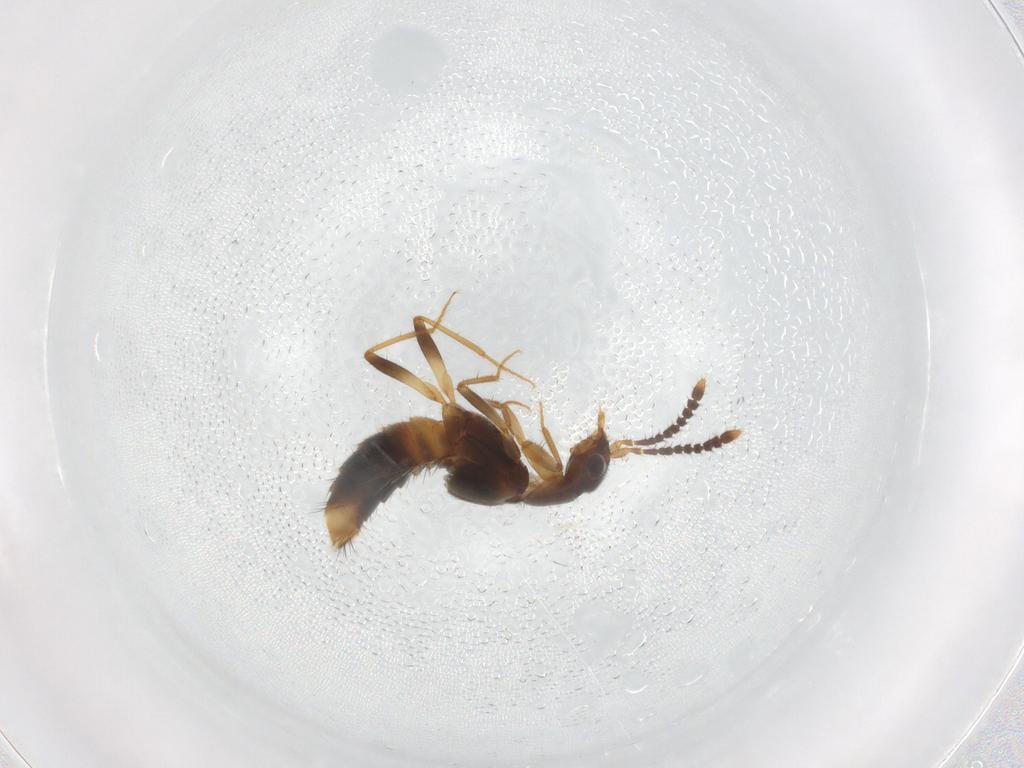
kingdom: Animalia
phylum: Arthropoda
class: Insecta
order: Coleoptera
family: Staphylinidae
